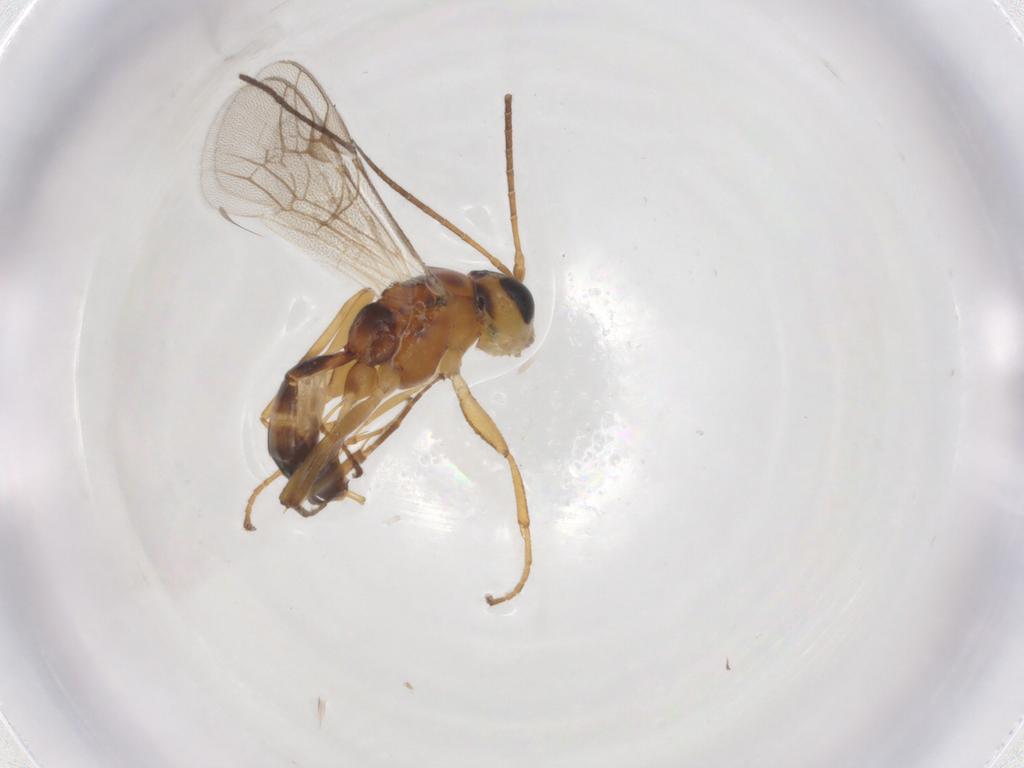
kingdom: Animalia
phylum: Arthropoda
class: Insecta
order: Hymenoptera
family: Ichneumonidae
